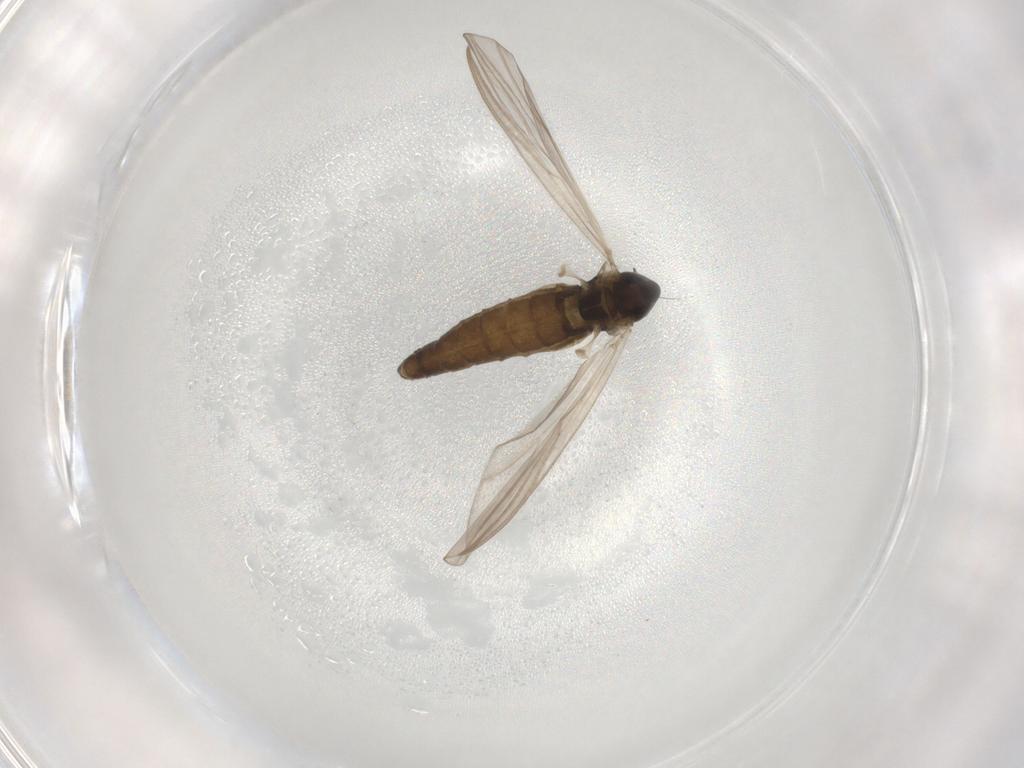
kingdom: Animalia
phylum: Arthropoda
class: Insecta
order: Diptera
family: Chironomidae
